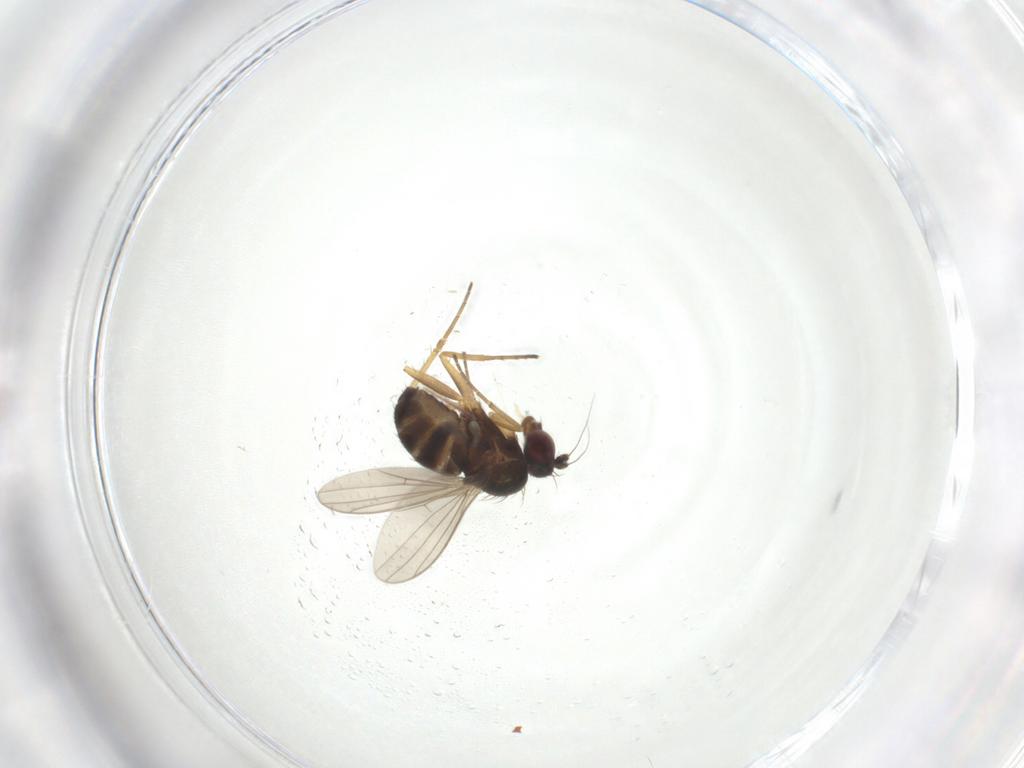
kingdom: Animalia
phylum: Arthropoda
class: Insecta
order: Diptera
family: Dolichopodidae
